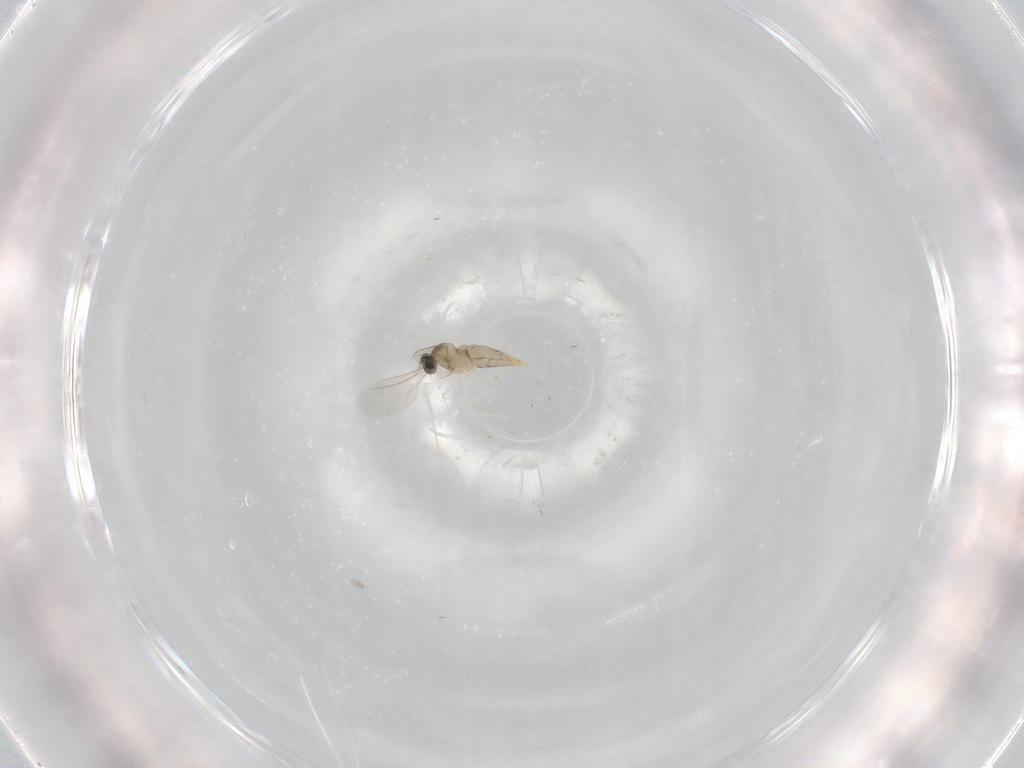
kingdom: Animalia
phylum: Arthropoda
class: Insecta
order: Diptera
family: Cecidomyiidae
